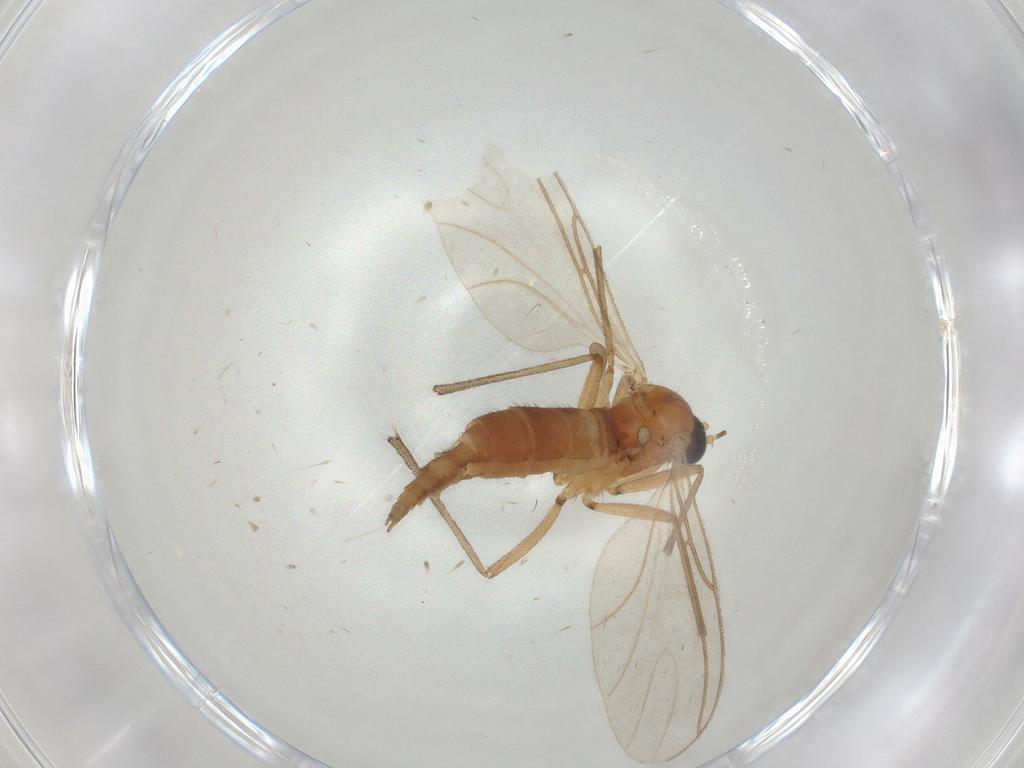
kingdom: Animalia
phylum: Arthropoda
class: Insecta
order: Diptera
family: Sciaridae
